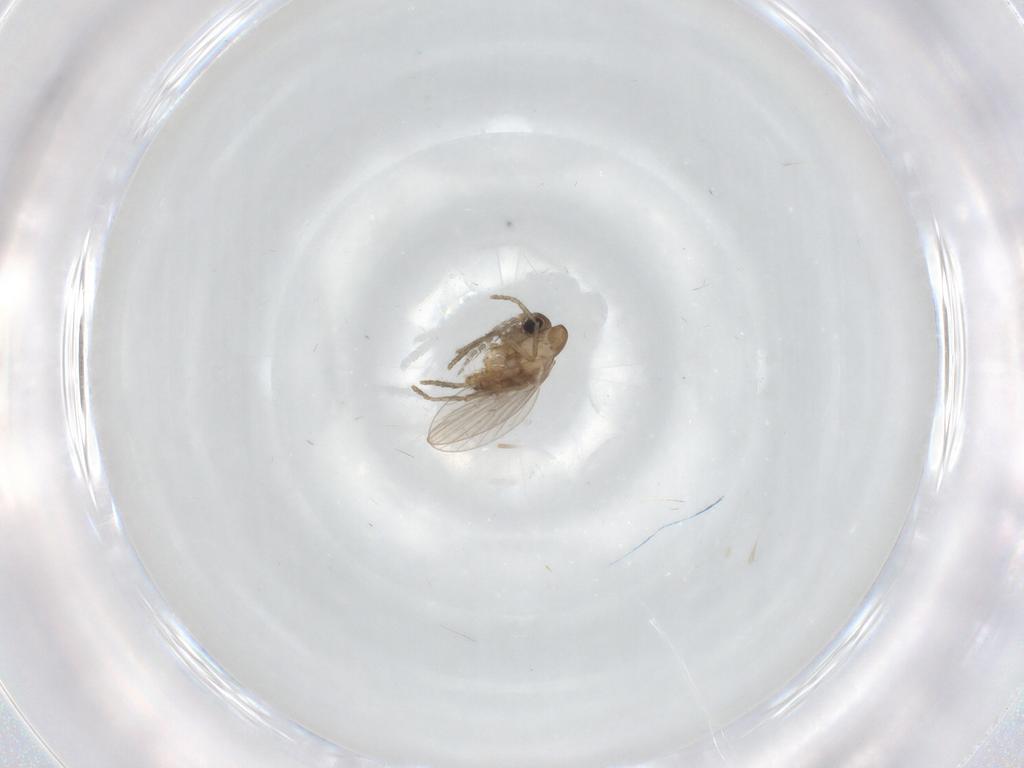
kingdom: Animalia
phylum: Arthropoda
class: Insecta
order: Diptera
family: Psychodidae
